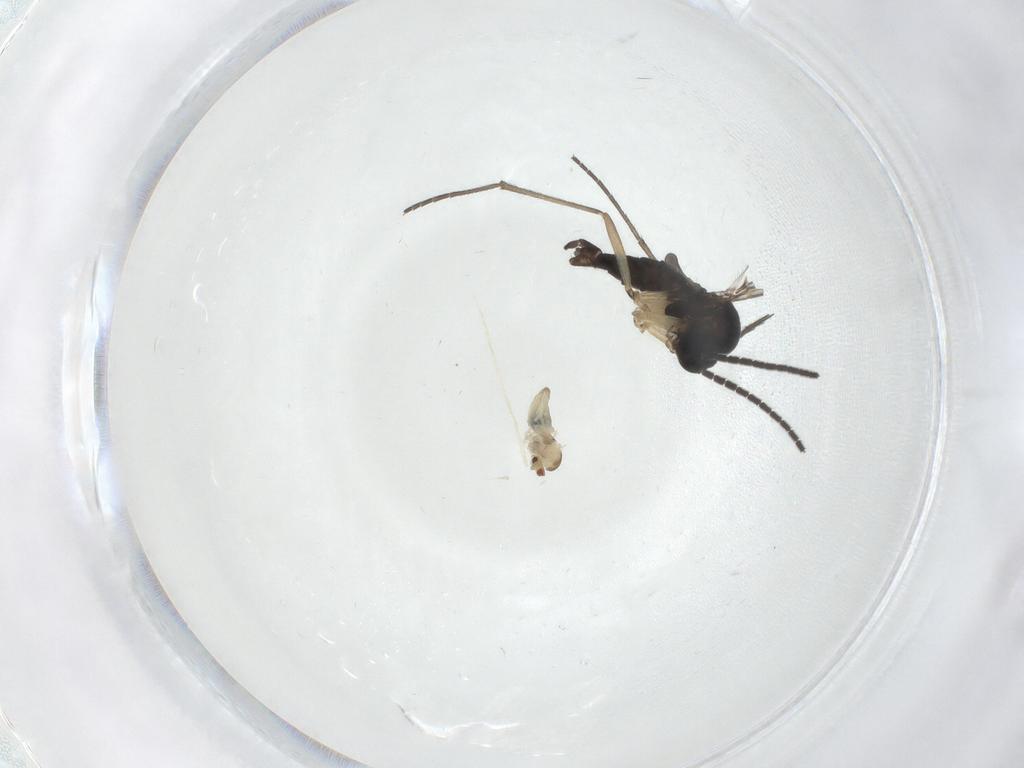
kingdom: Animalia
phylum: Arthropoda
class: Insecta
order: Diptera
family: Sciaridae
